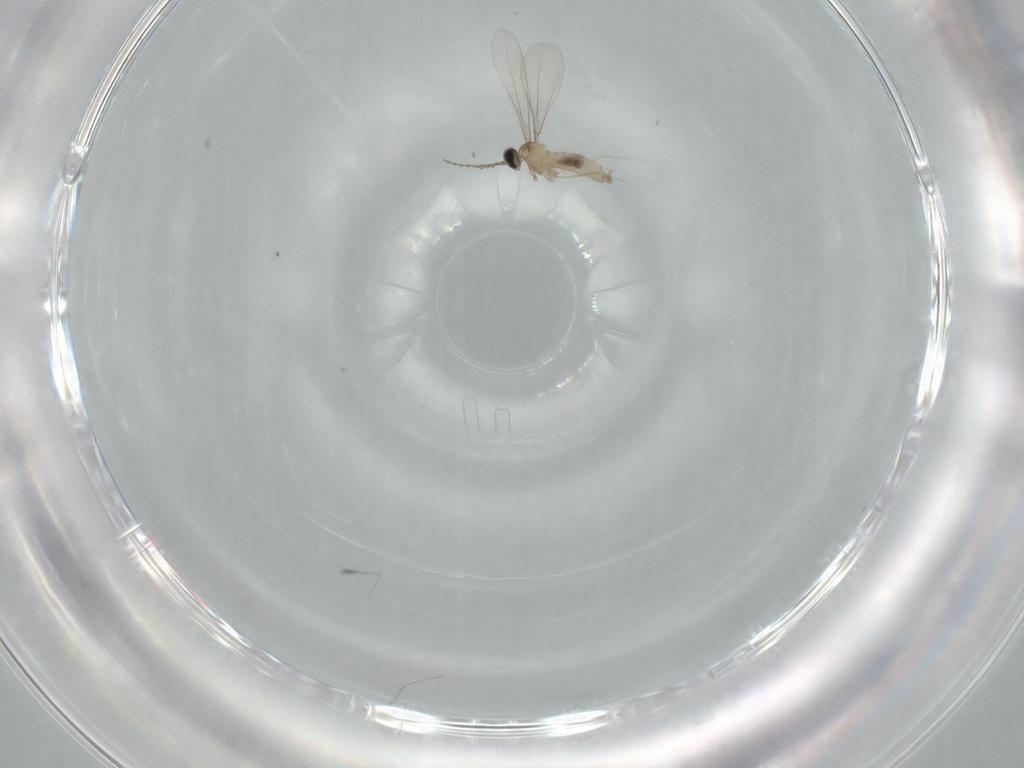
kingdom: Animalia
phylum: Arthropoda
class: Insecta
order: Diptera
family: Cecidomyiidae
